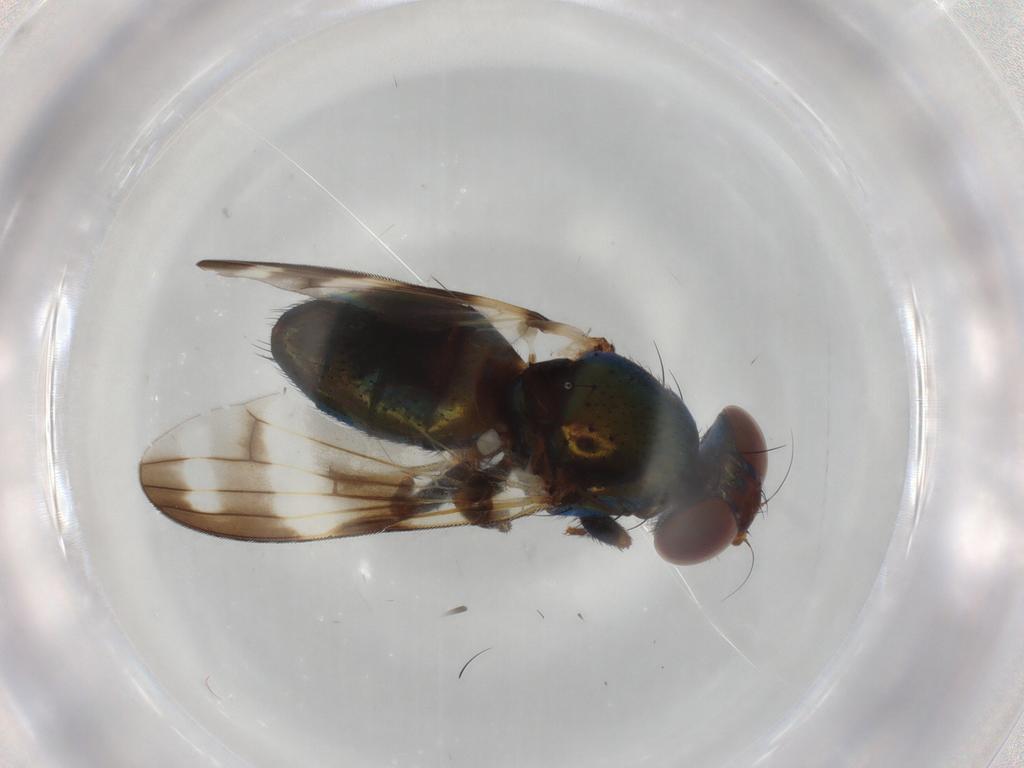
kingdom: Animalia
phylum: Arthropoda
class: Insecta
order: Diptera
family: Ulidiidae
